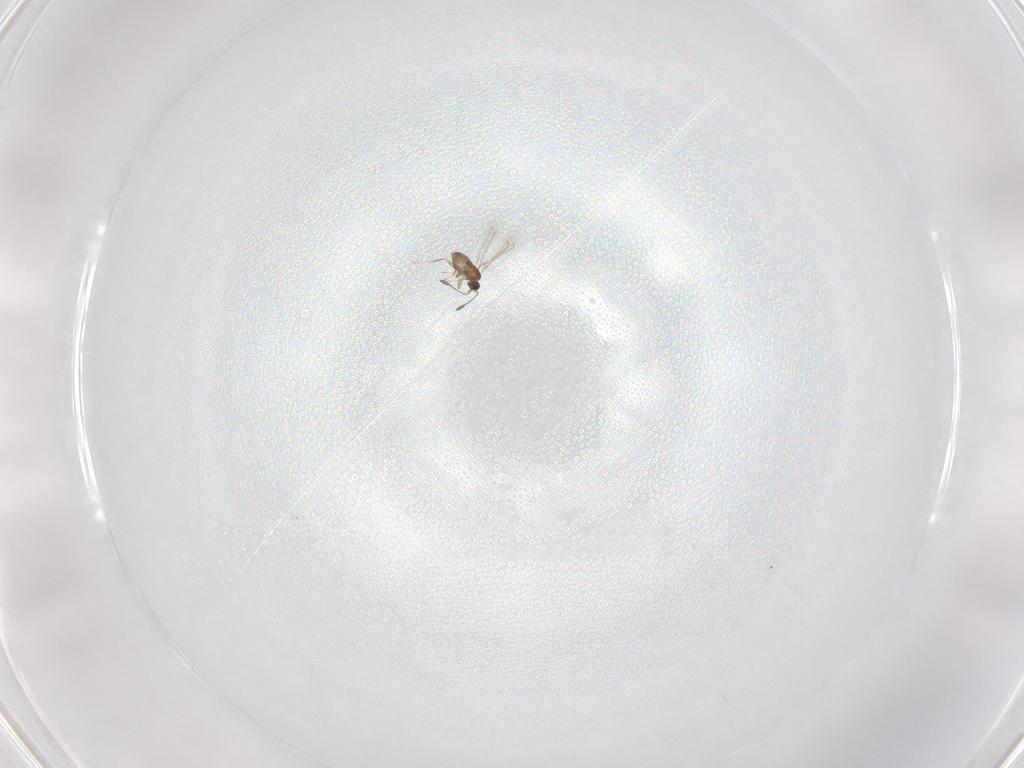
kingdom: Animalia
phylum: Arthropoda
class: Insecta
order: Hymenoptera
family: Mymaridae
